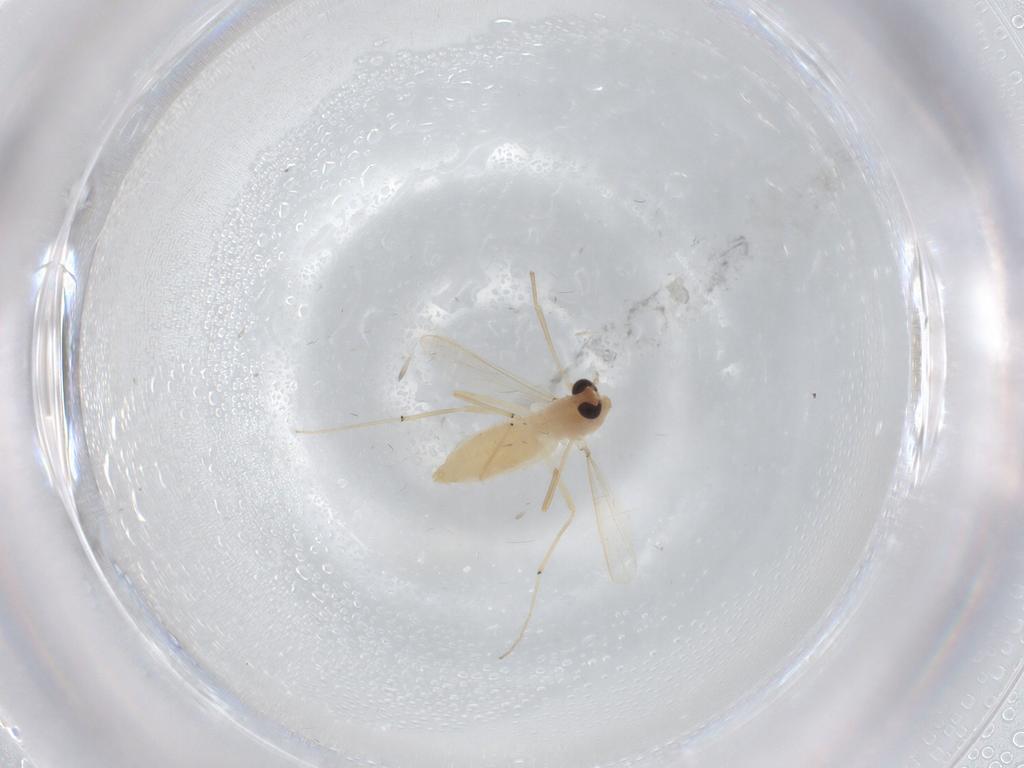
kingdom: Animalia
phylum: Arthropoda
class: Insecta
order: Diptera
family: Chironomidae
